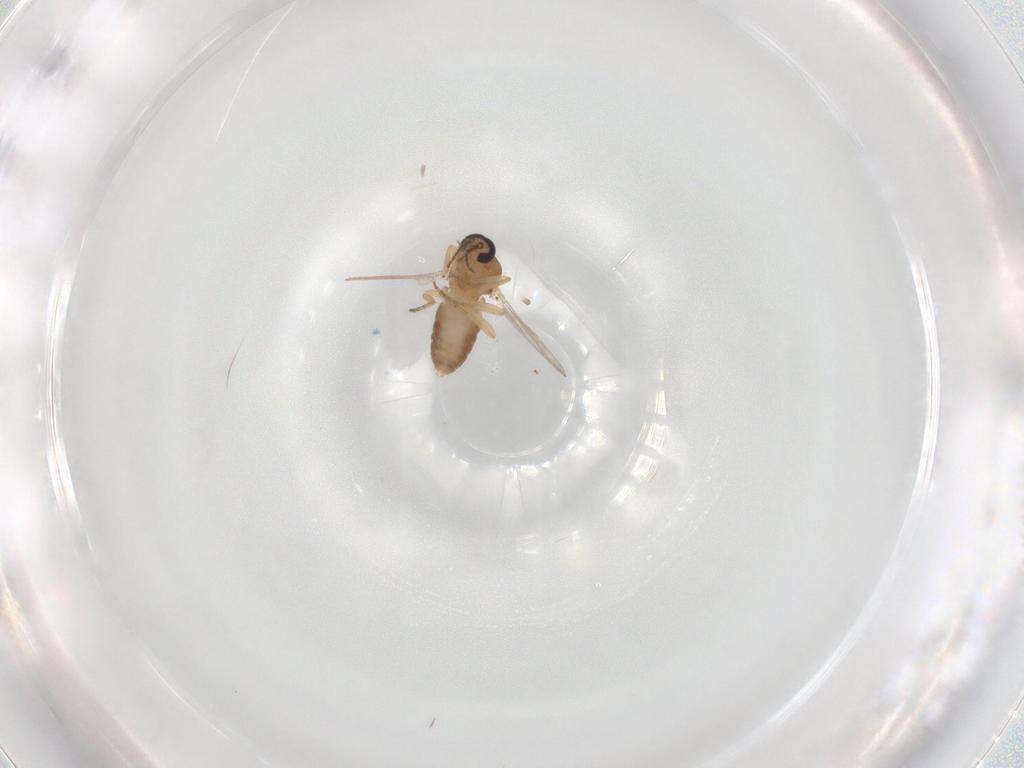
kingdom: Animalia
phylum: Arthropoda
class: Insecta
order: Diptera
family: Ceratopogonidae
